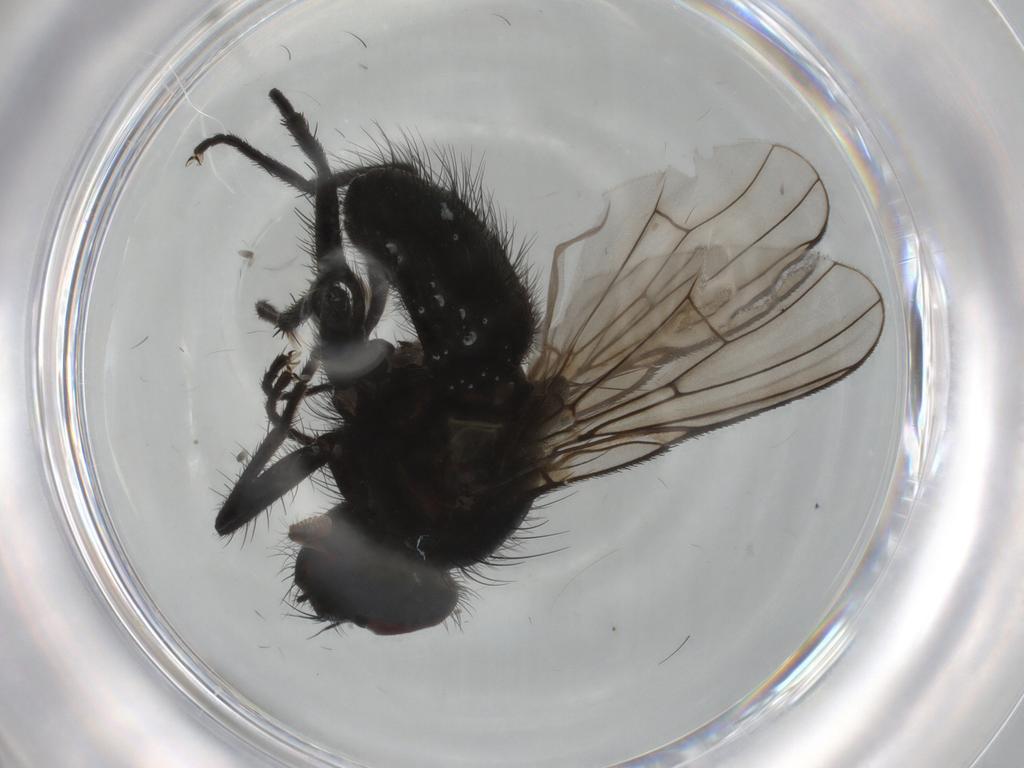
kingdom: Animalia
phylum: Arthropoda
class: Insecta
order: Diptera
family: Muscidae
